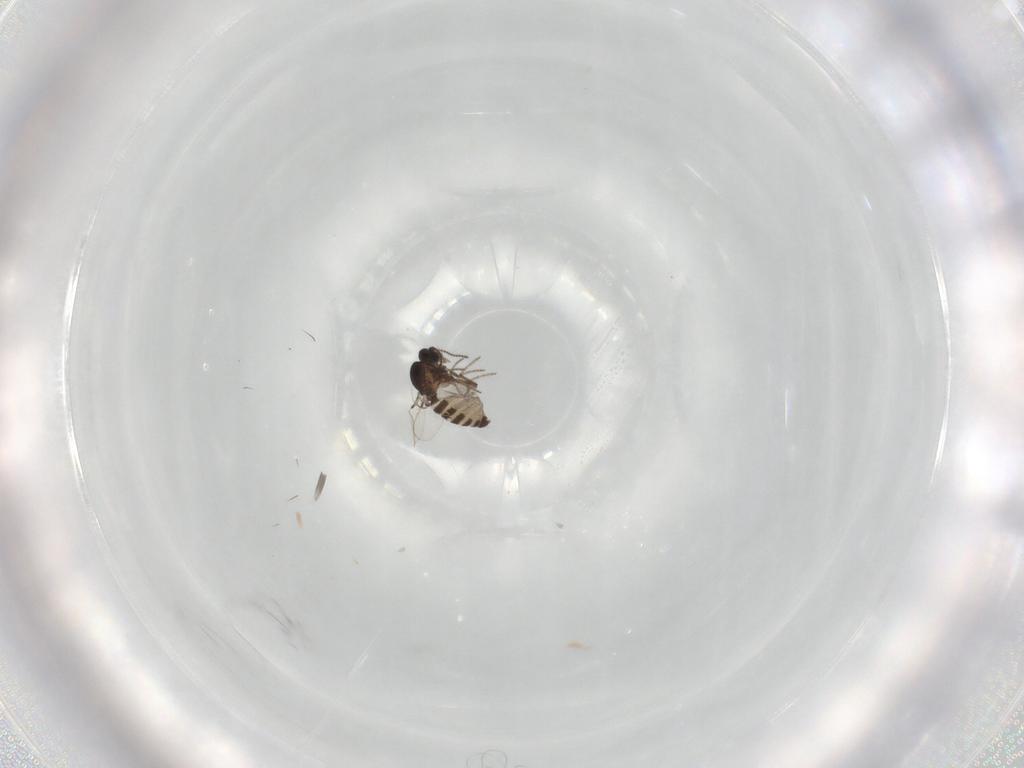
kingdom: Animalia
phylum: Arthropoda
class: Insecta
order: Diptera
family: Ceratopogonidae
